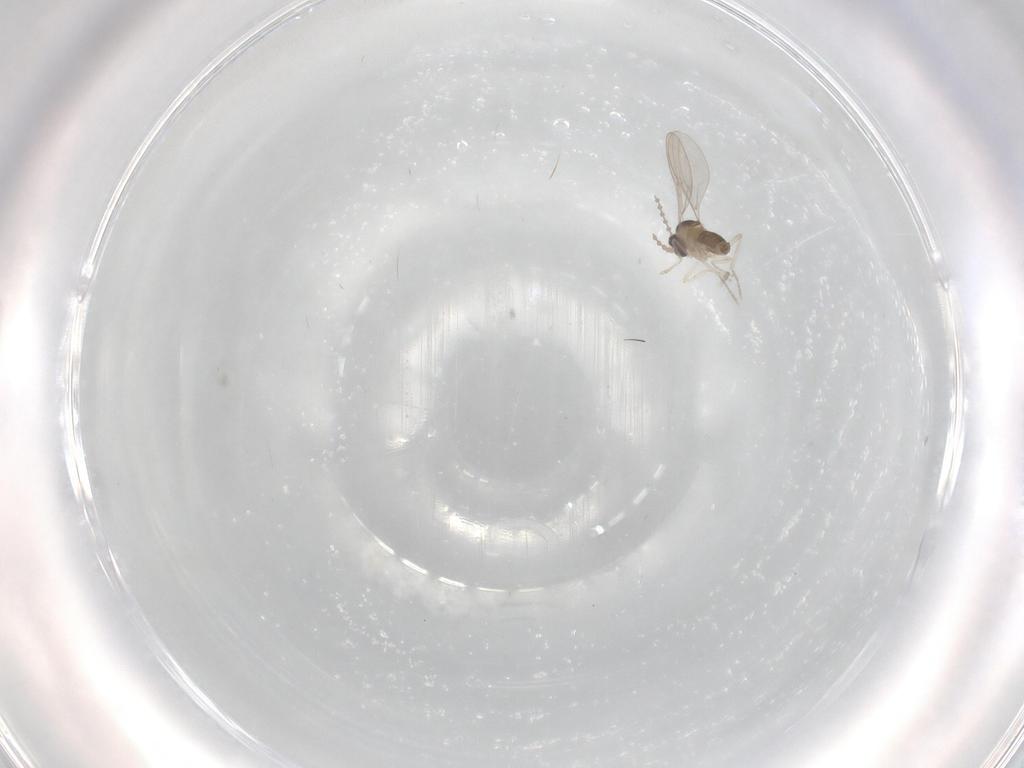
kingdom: Animalia
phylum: Arthropoda
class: Insecta
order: Diptera
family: Cecidomyiidae
